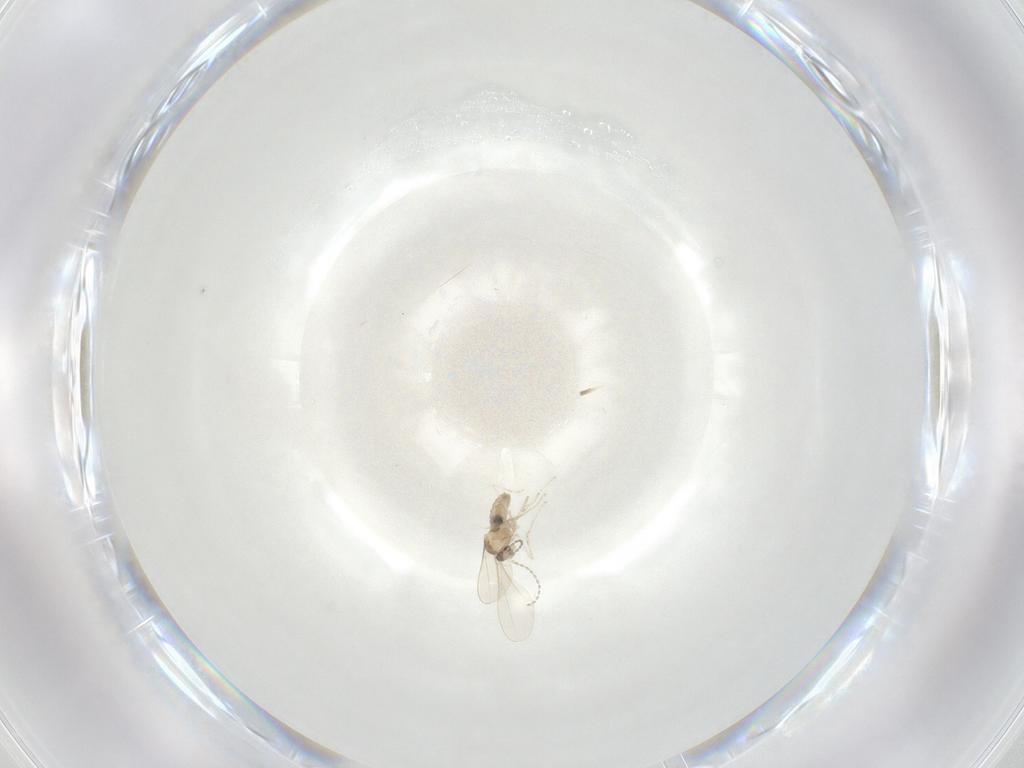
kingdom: Animalia
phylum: Arthropoda
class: Insecta
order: Diptera
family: Cecidomyiidae
